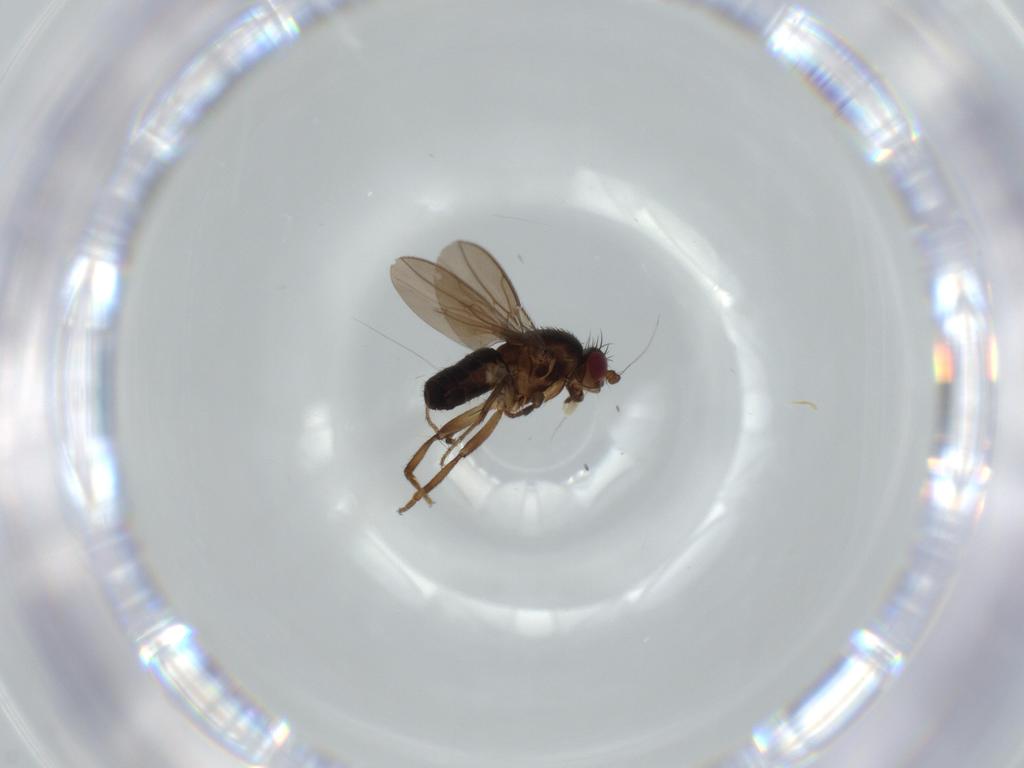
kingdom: Animalia
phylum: Arthropoda
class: Insecta
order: Diptera
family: Sphaeroceridae
